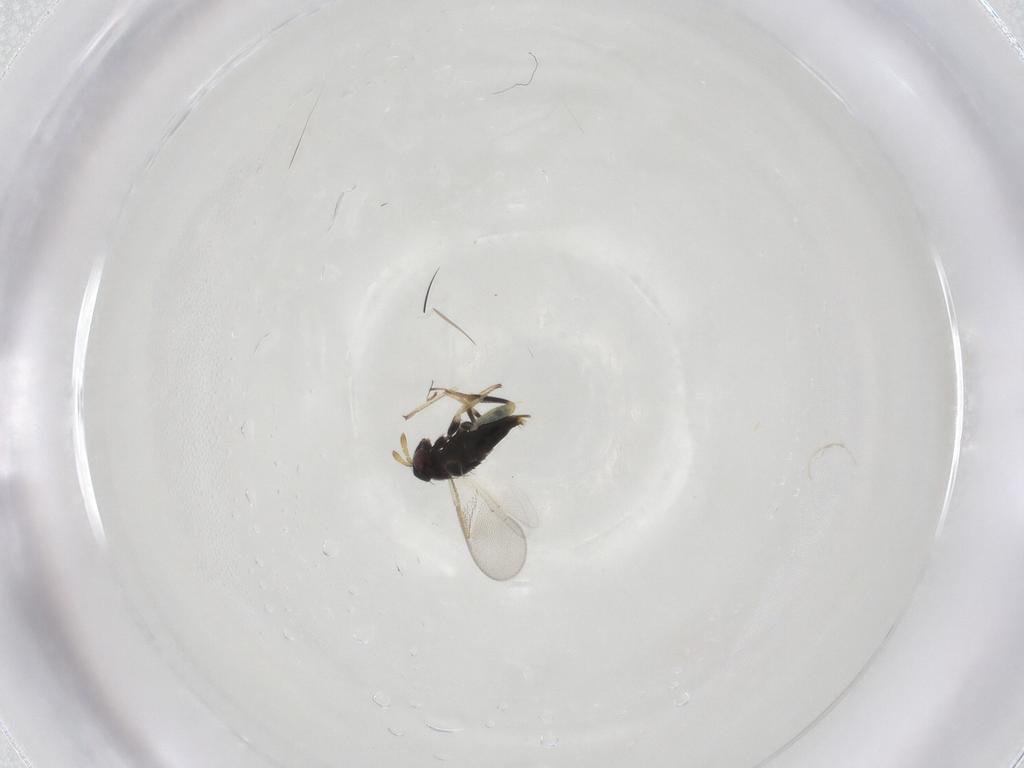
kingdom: Animalia
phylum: Arthropoda
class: Insecta
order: Hymenoptera
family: Aphelinidae
